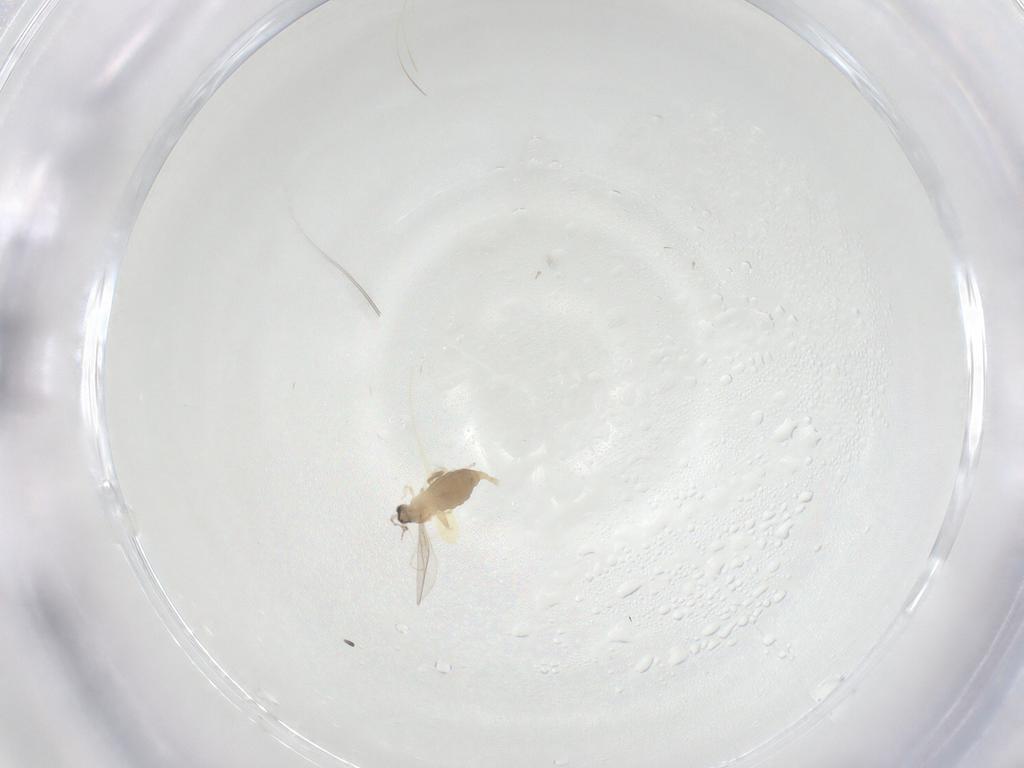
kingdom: Animalia
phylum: Arthropoda
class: Insecta
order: Diptera
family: Cecidomyiidae
